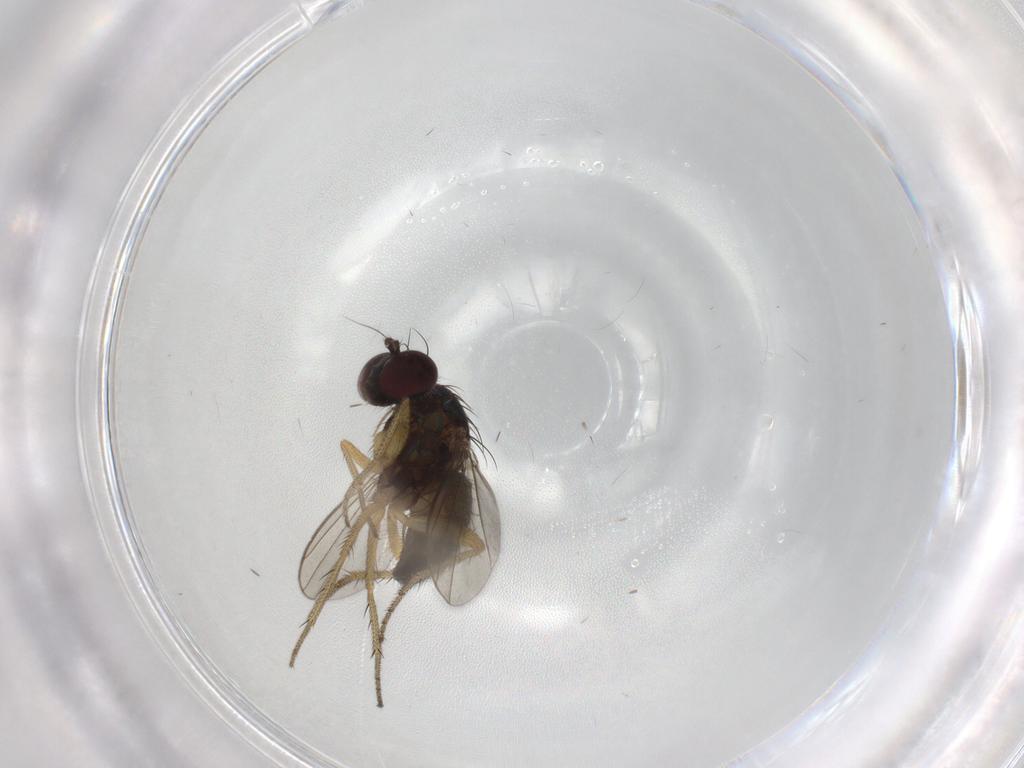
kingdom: Animalia
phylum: Arthropoda
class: Insecta
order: Diptera
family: Chironomidae
